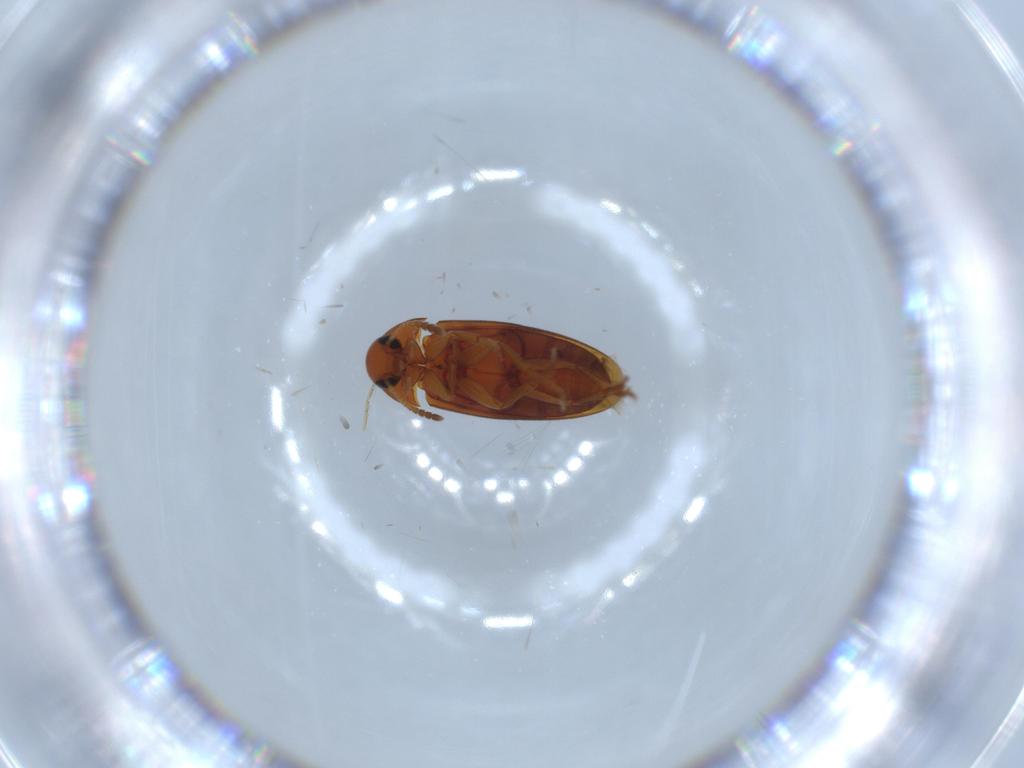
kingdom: Animalia
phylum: Arthropoda
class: Insecta
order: Coleoptera
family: Scraptiidae
